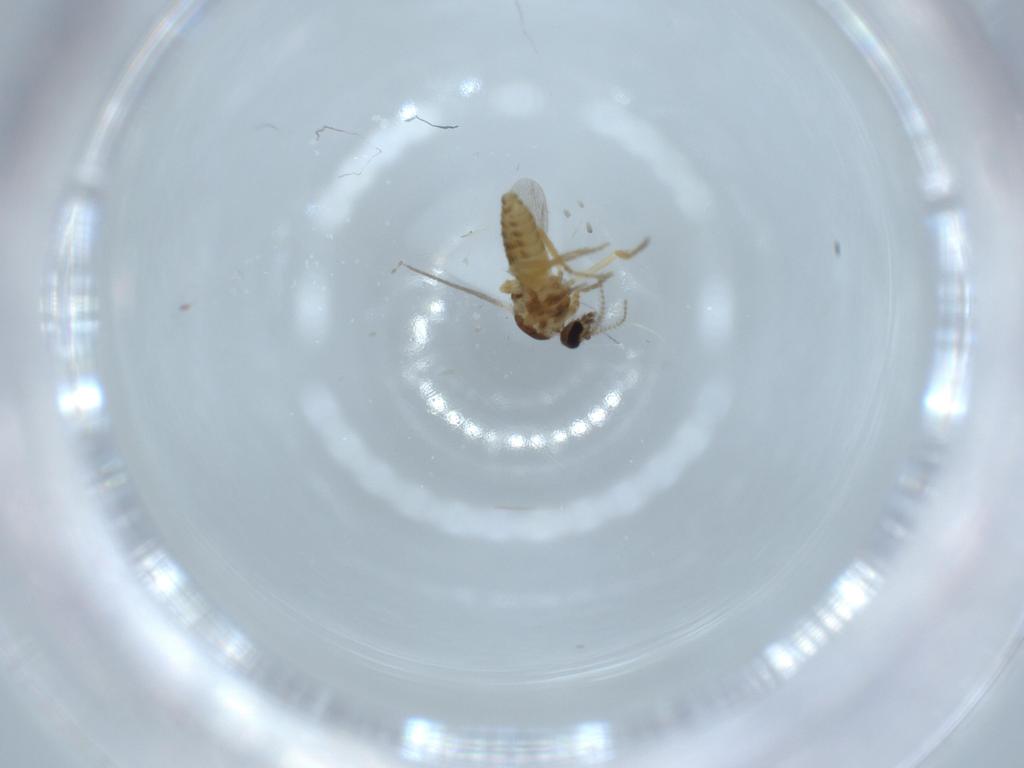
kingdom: Animalia
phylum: Arthropoda
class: Insecta
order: Diptera
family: Ceratopogonidae
